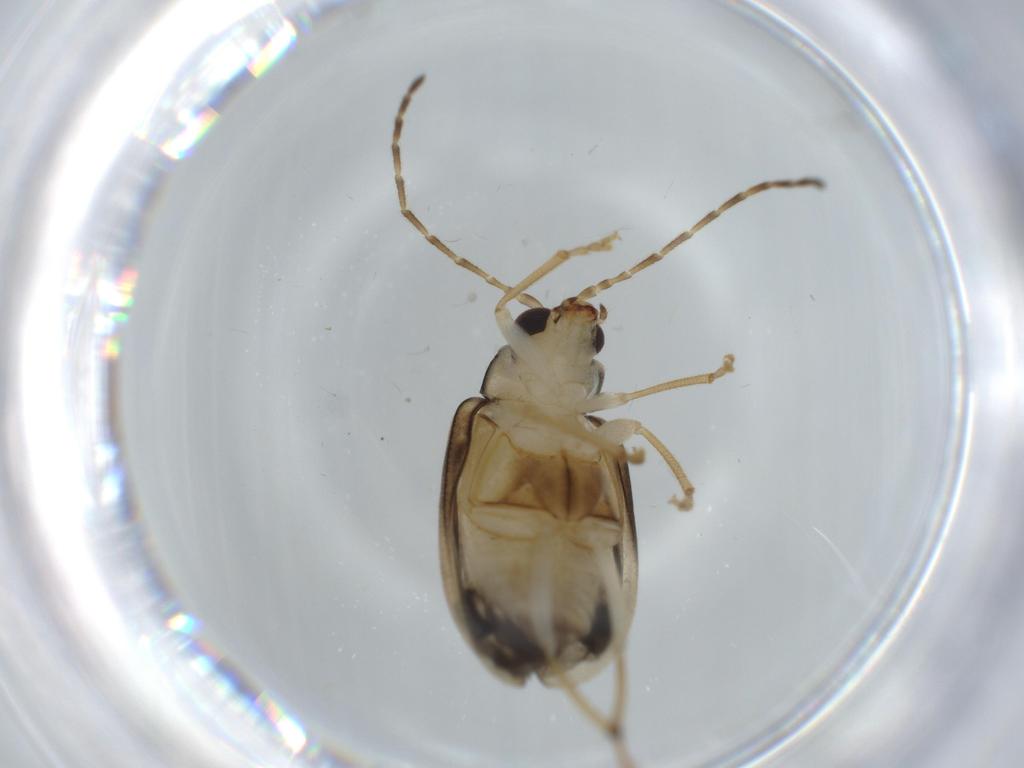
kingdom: Animalia
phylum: Arthropoda
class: Insecta
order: Coleoptera
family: Chrysomelidae
